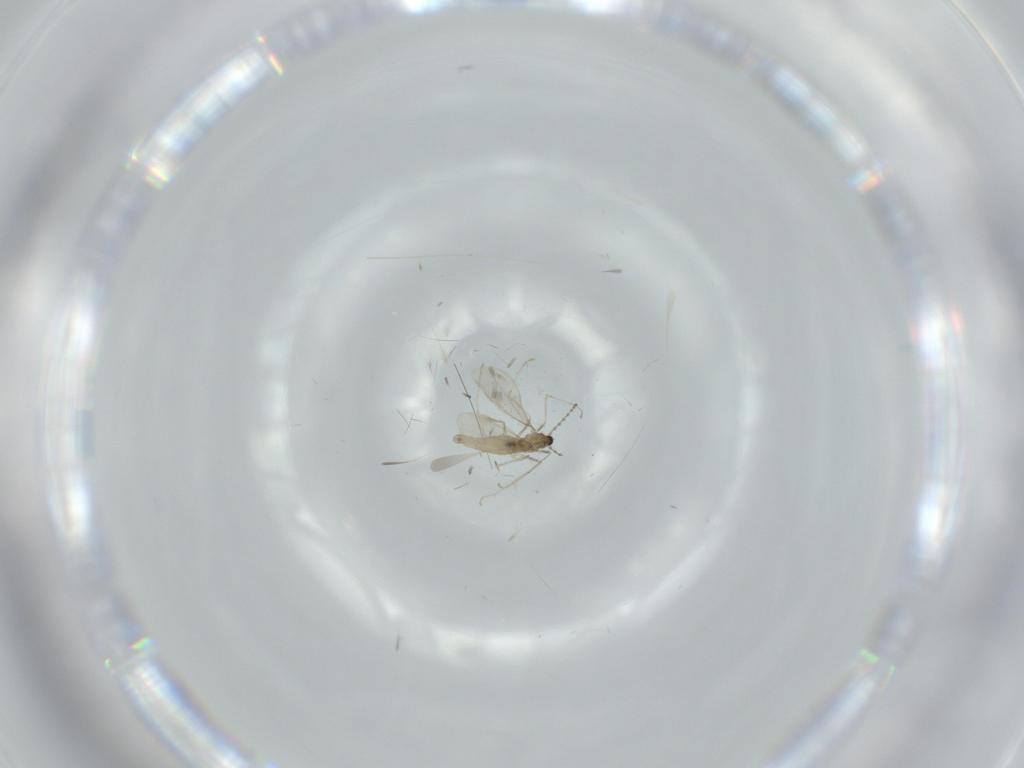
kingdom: Animalia
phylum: Arthropoda
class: Insecta
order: Diptera
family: Cecidomyiidae
